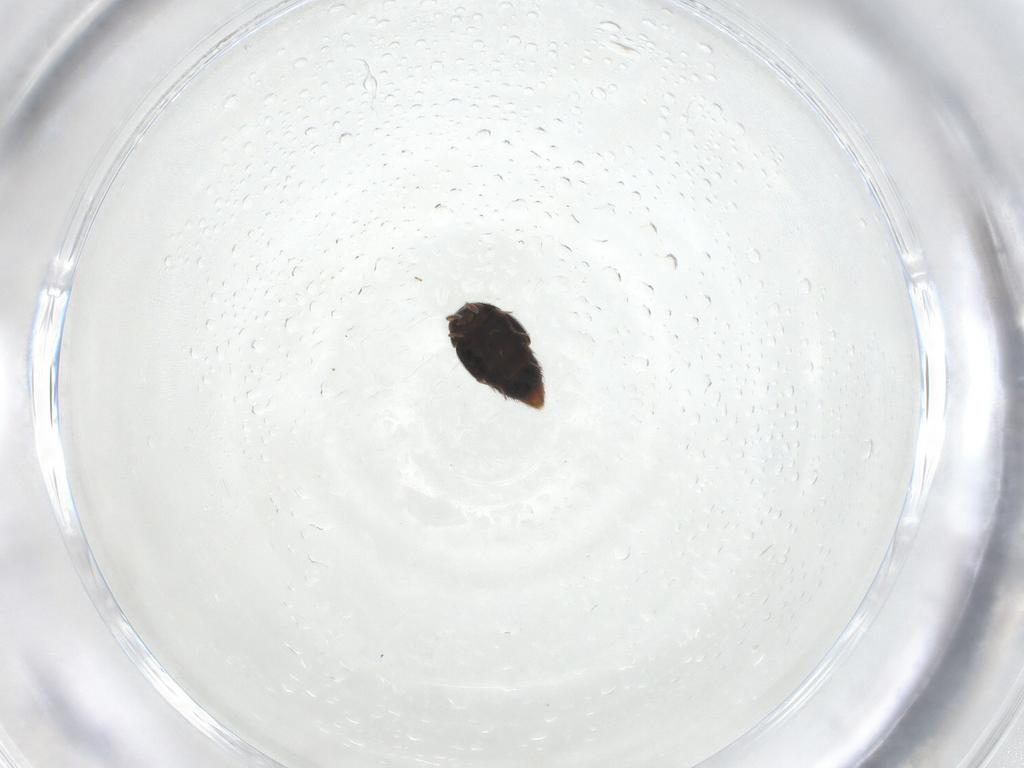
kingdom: Animalia
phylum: Arthropoda
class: Insecta
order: Coleoptera
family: Staphylinidae
